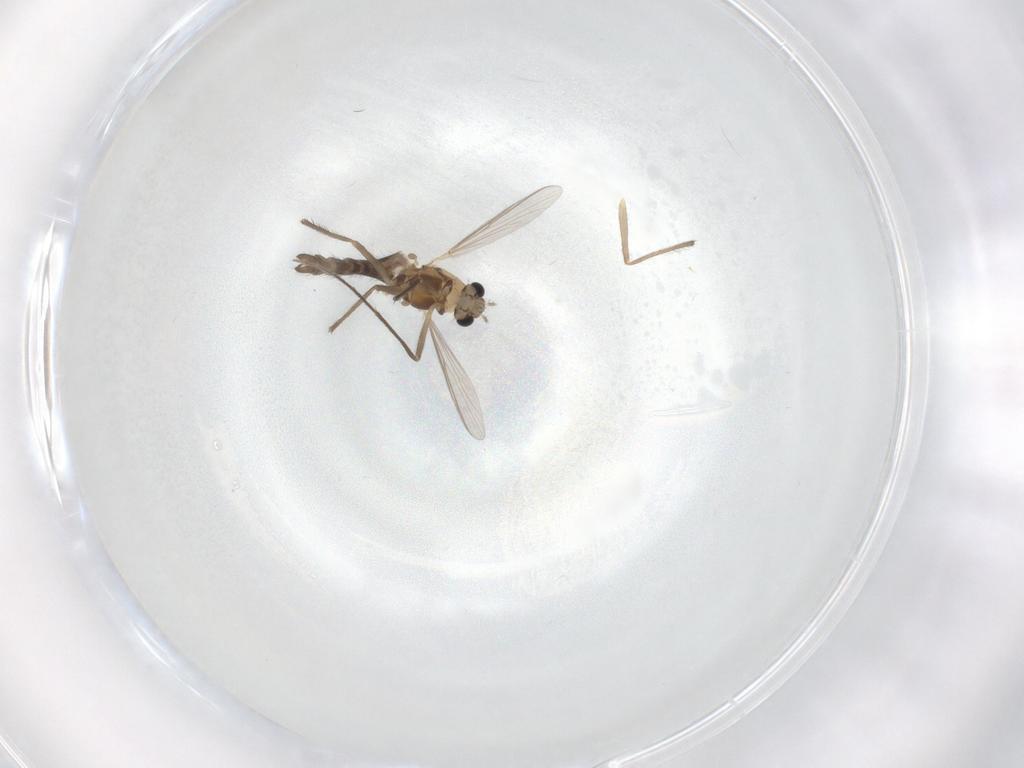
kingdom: Animalia
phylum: Arthropoda
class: Insecta
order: Diptera
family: Chironomidae
